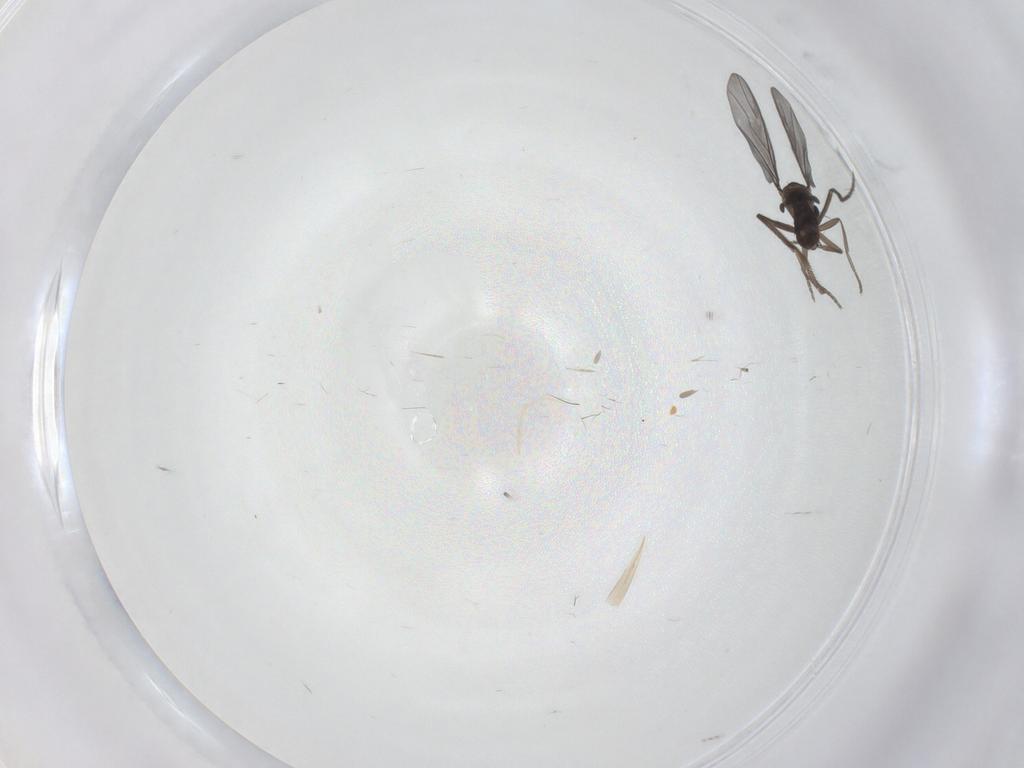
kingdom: Animalia
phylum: Arthropoda
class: Insecta
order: Diptera
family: Phoridae
